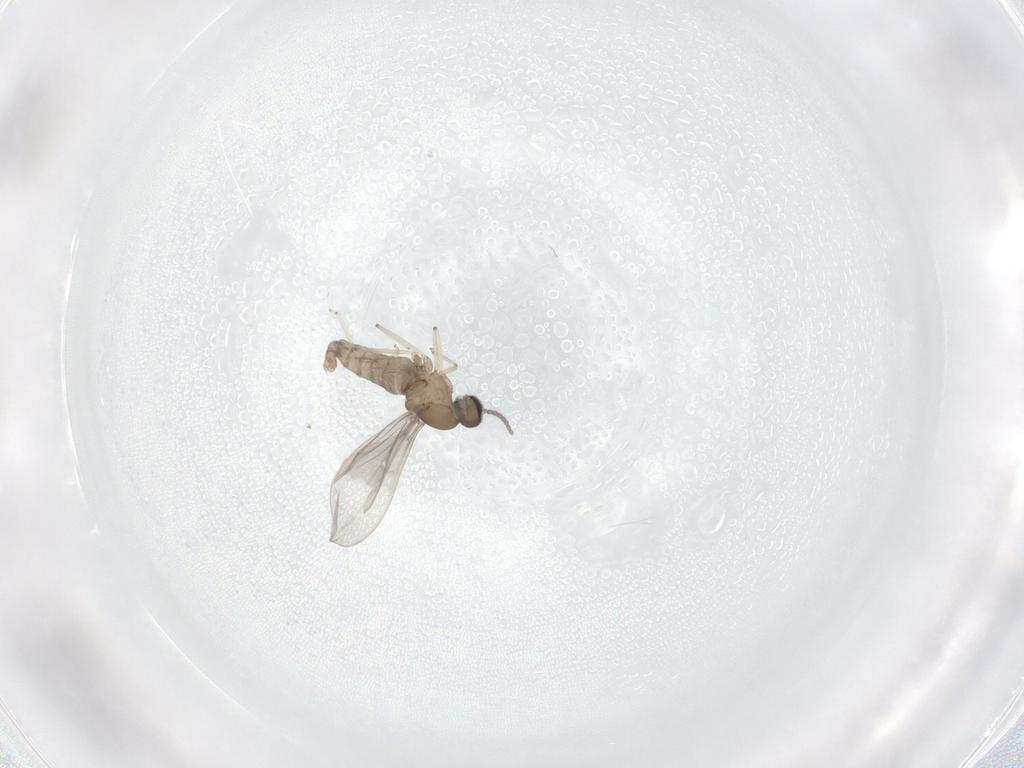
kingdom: Animalia
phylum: Arthropoda
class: Insecta
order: Diptera
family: Cecidomyiidae
